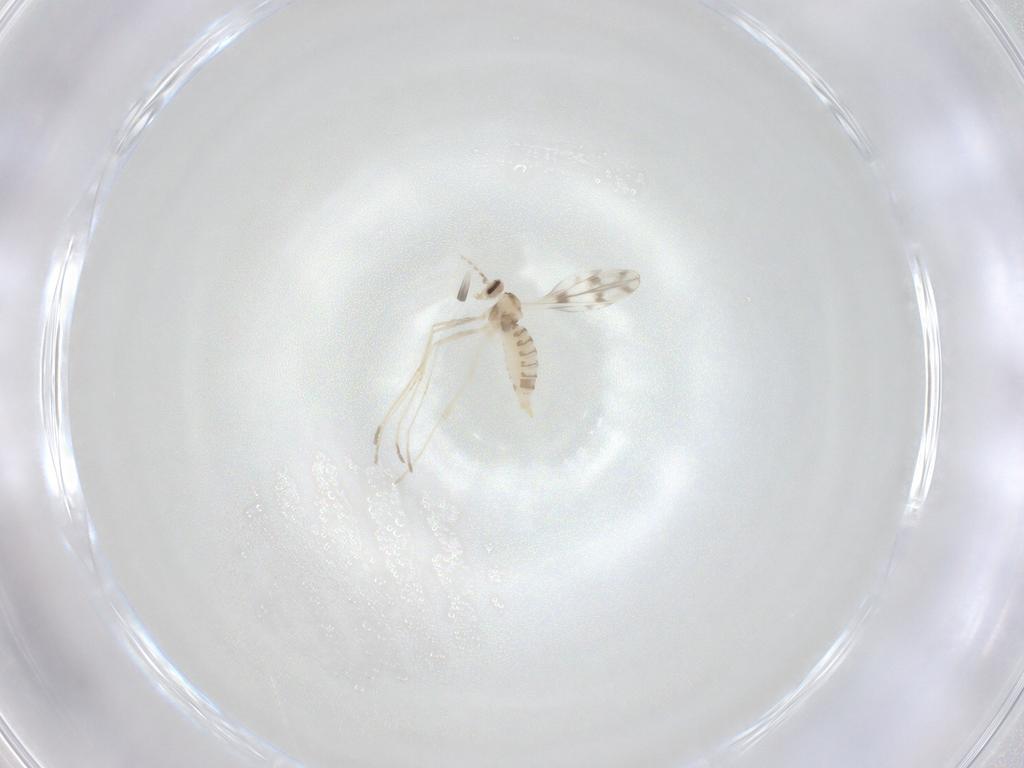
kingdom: Animalia
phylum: Arthropoda
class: Insecta
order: Diptera
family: Cecidomyiidae
